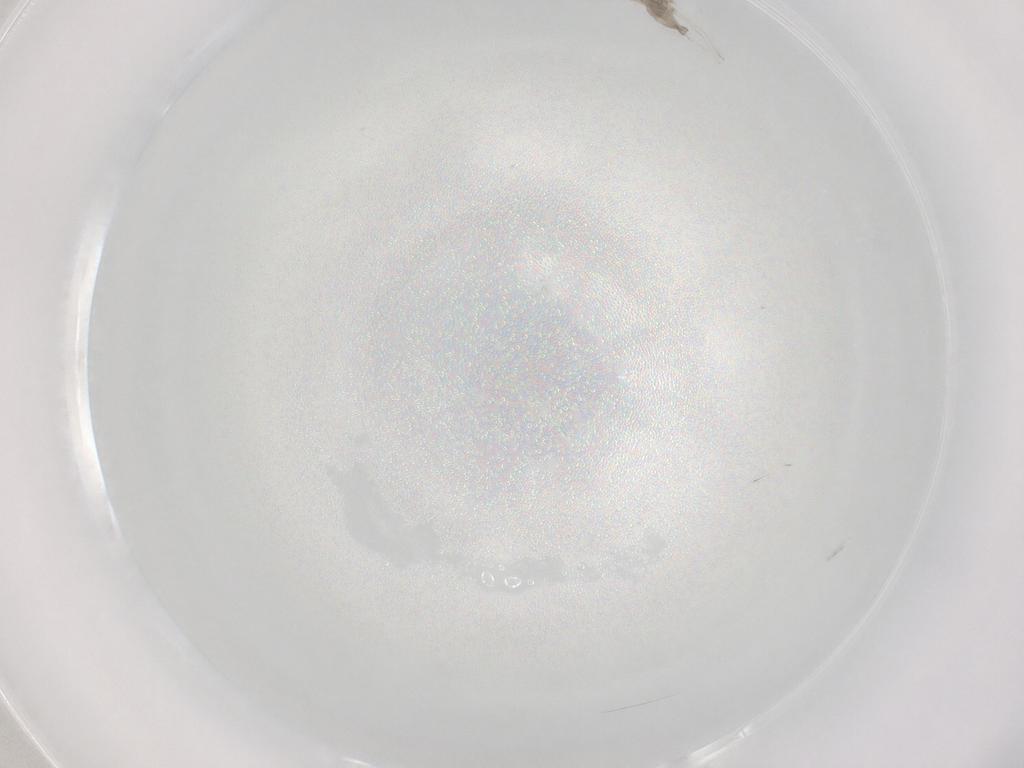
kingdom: Animalia
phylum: Arthropoda
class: Insecta
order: Diptera
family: Cecidomyiidae
